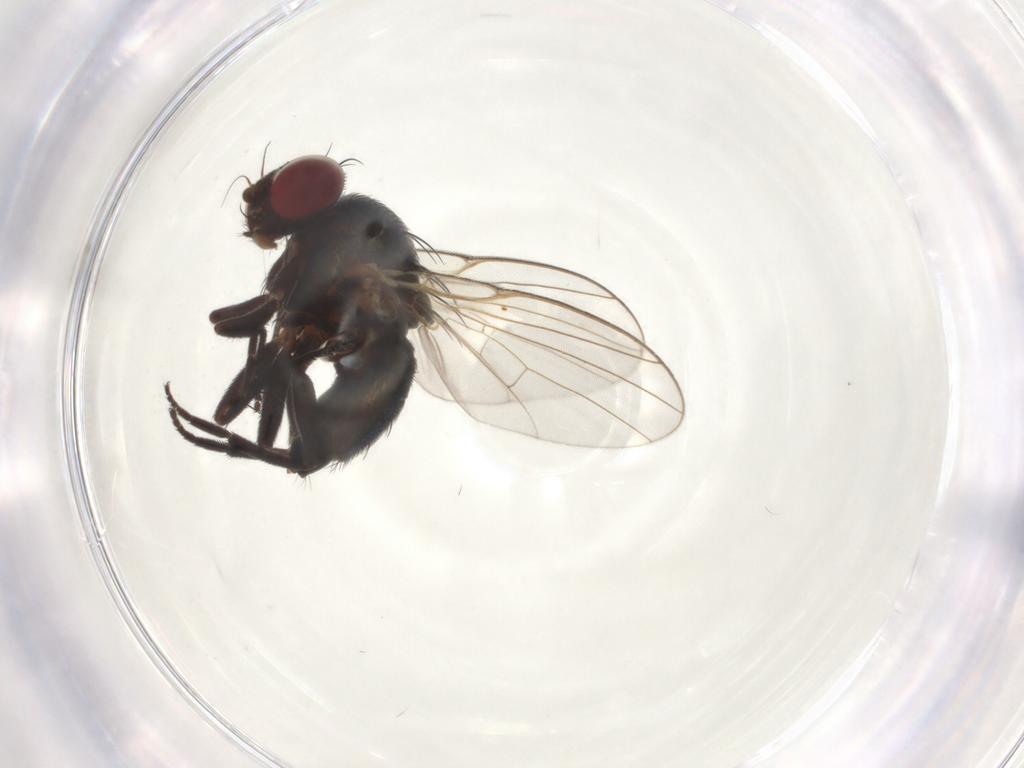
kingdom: Animalia
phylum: Arthropoda
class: Insecta
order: Diptera
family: Agromyzidae
